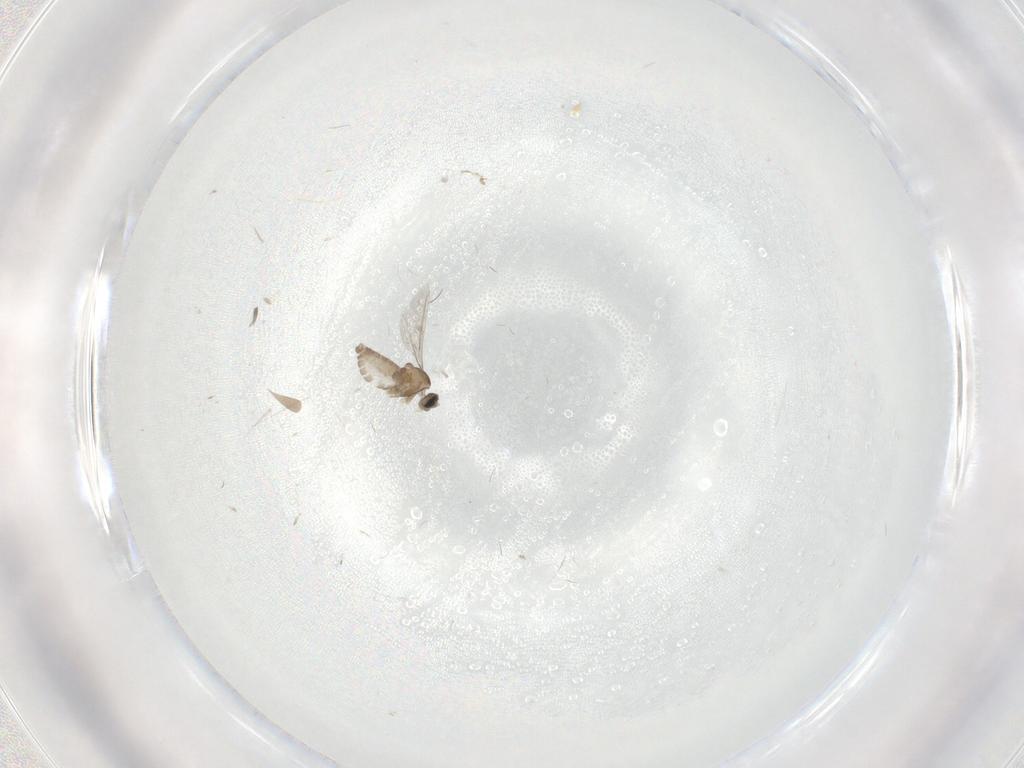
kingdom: Animalia
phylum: Arthropoda
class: Insecta
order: Diptera
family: Cecidomyiidae
